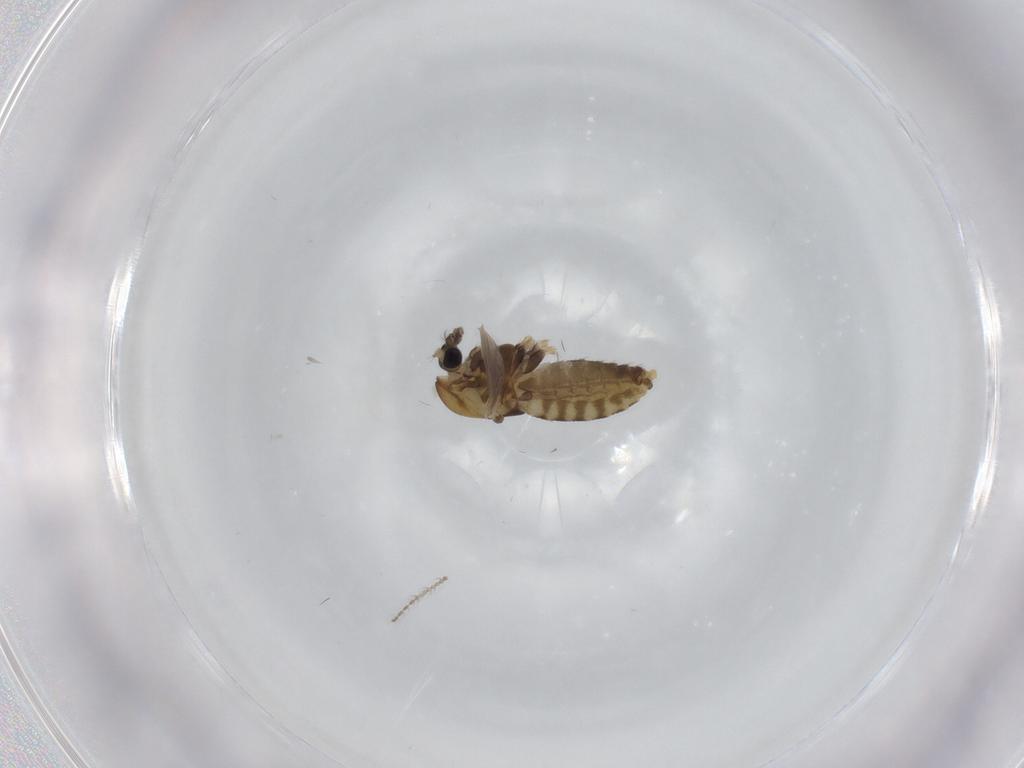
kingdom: Animalia
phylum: Arthropoda
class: Insecta
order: Diptera
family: Chironomidae
